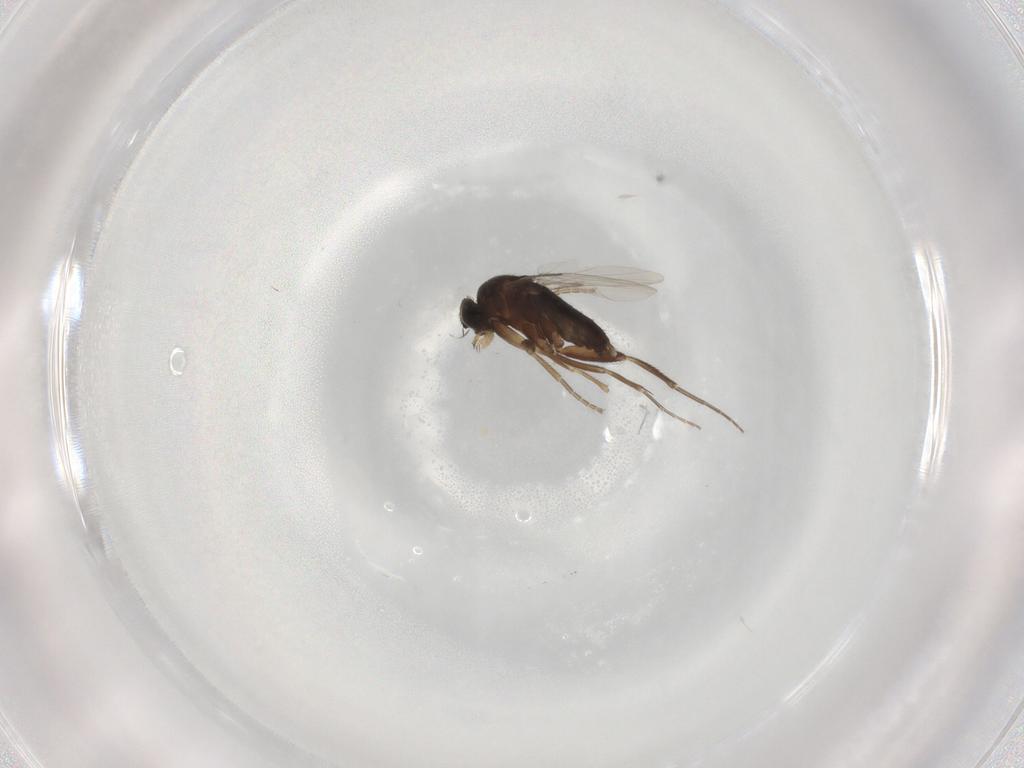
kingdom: Animalia
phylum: Arthropoda
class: Insecta
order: Diptera
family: Phoridae
